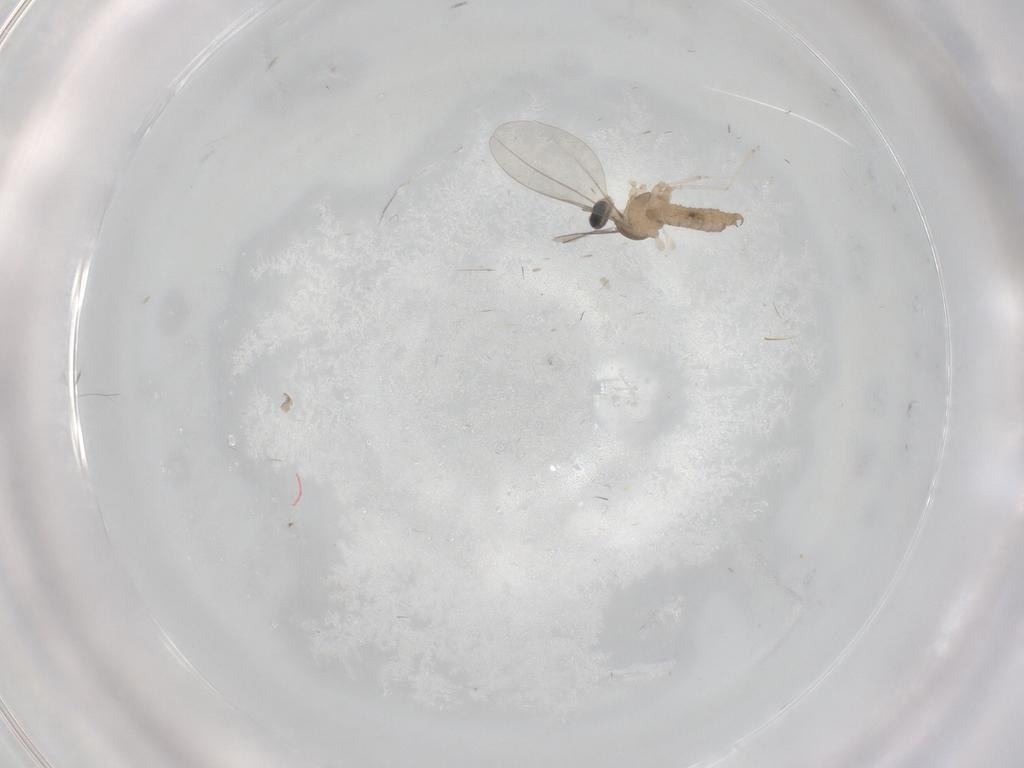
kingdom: Animalia
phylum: Arthropoda
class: Insecta
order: Diptera
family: Cecidomyiidae
